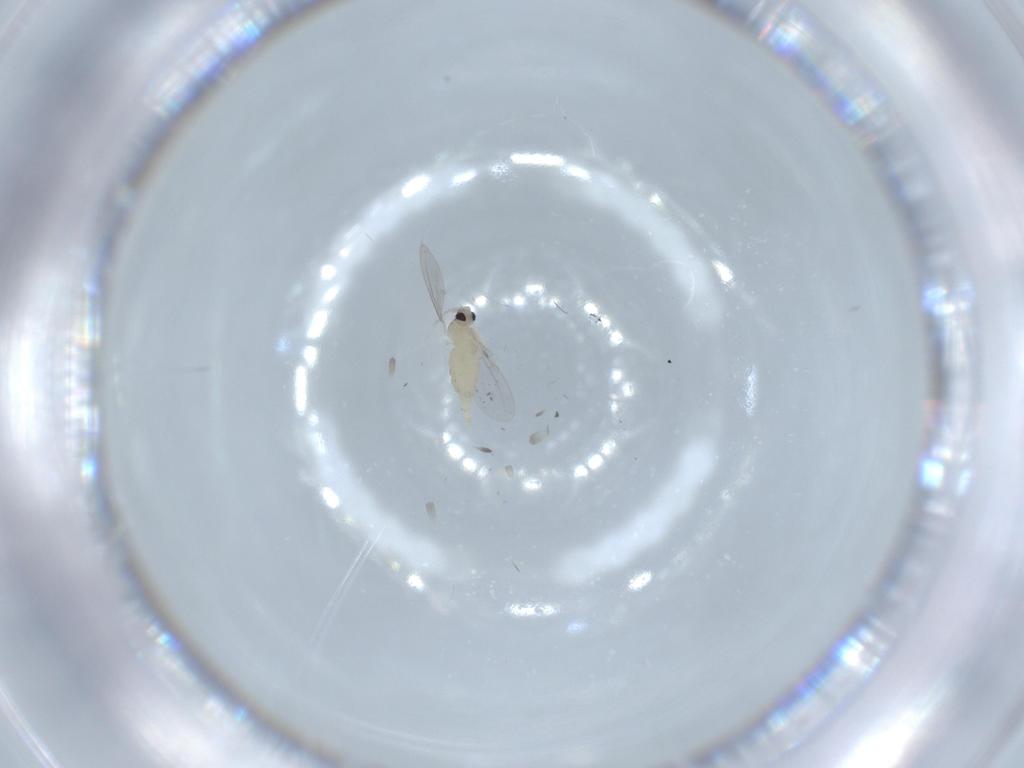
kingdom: Animalia
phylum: Arthropoda
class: Insecta
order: Diptera
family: Cecidomyiidae
